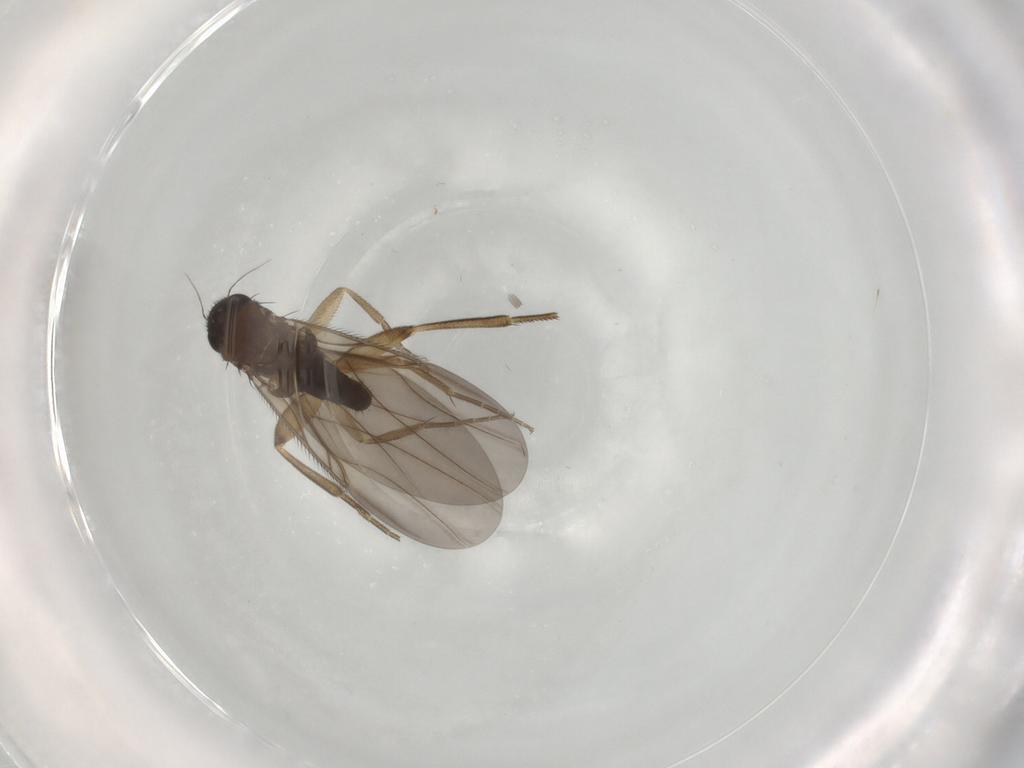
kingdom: Animalia
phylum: Arthropoda
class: Insecta
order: Diptera
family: Phoridae
